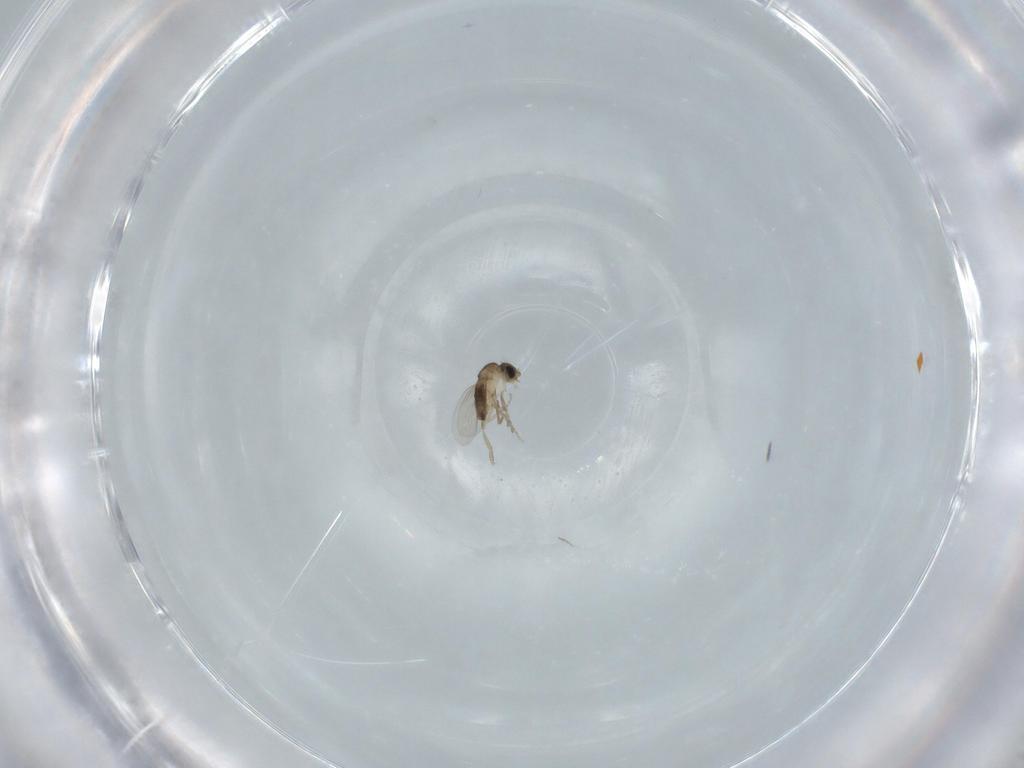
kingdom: Animalia
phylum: Arthropoda
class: Insecta
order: Diptera
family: Phoridae
